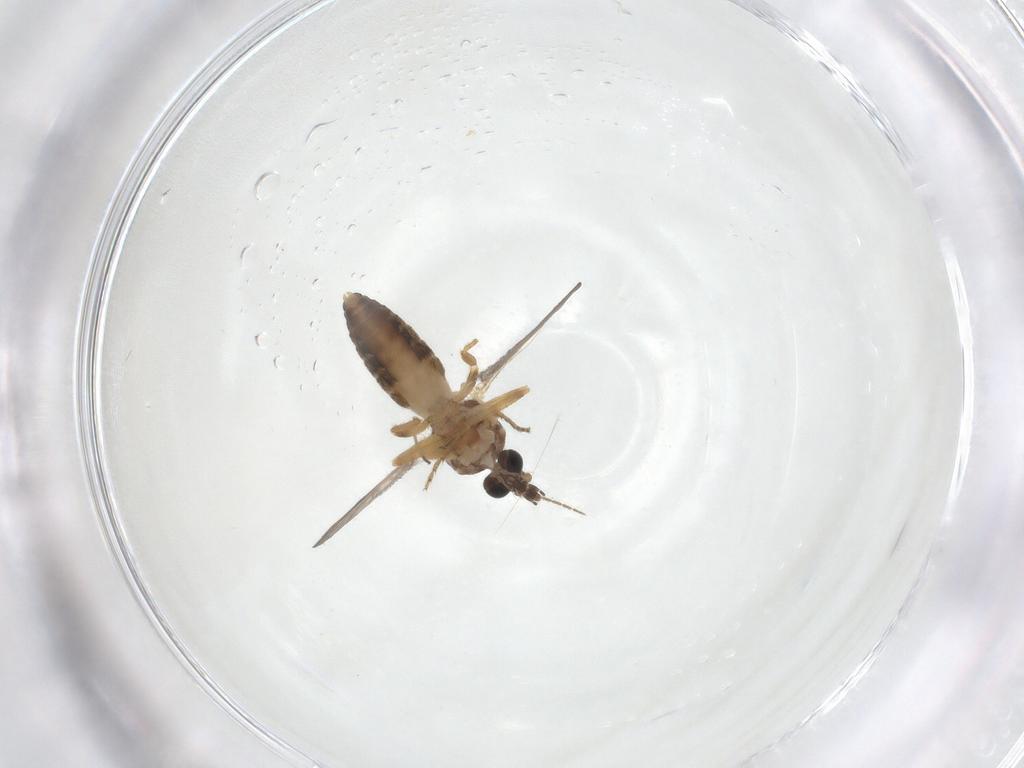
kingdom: Animalia
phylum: Arthropoda
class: Insecta
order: Diptera
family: Ceratopogonidae
